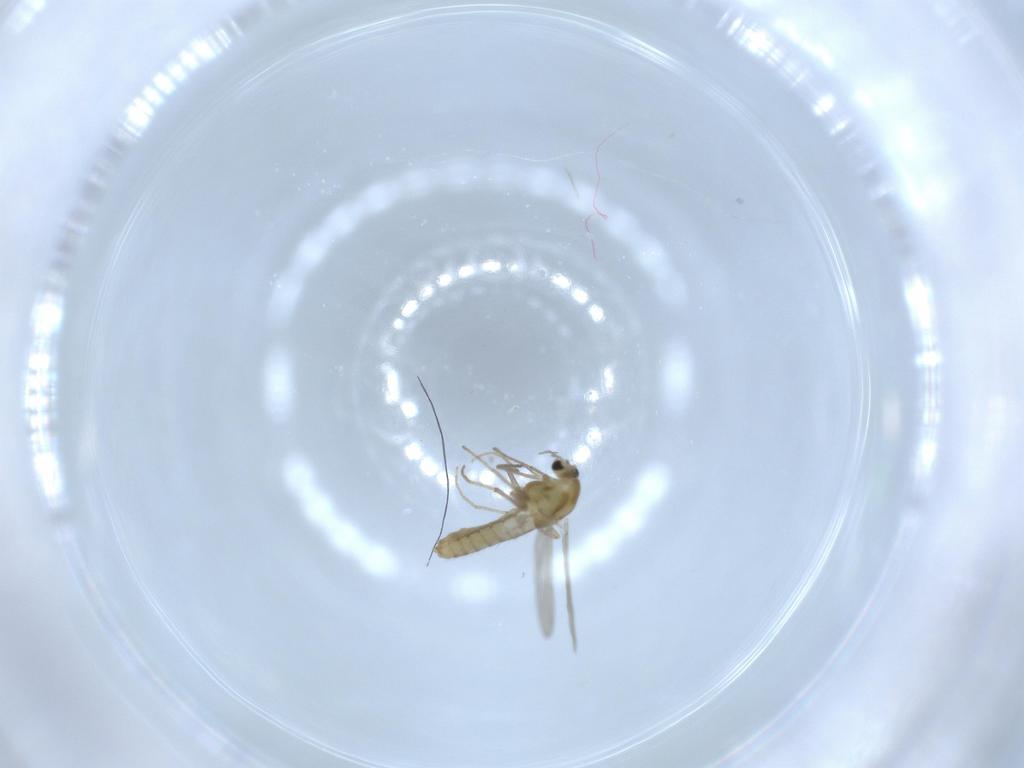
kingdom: Animalia
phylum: Arthropoda
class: Insecta
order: Diptera
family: Chironomidae
